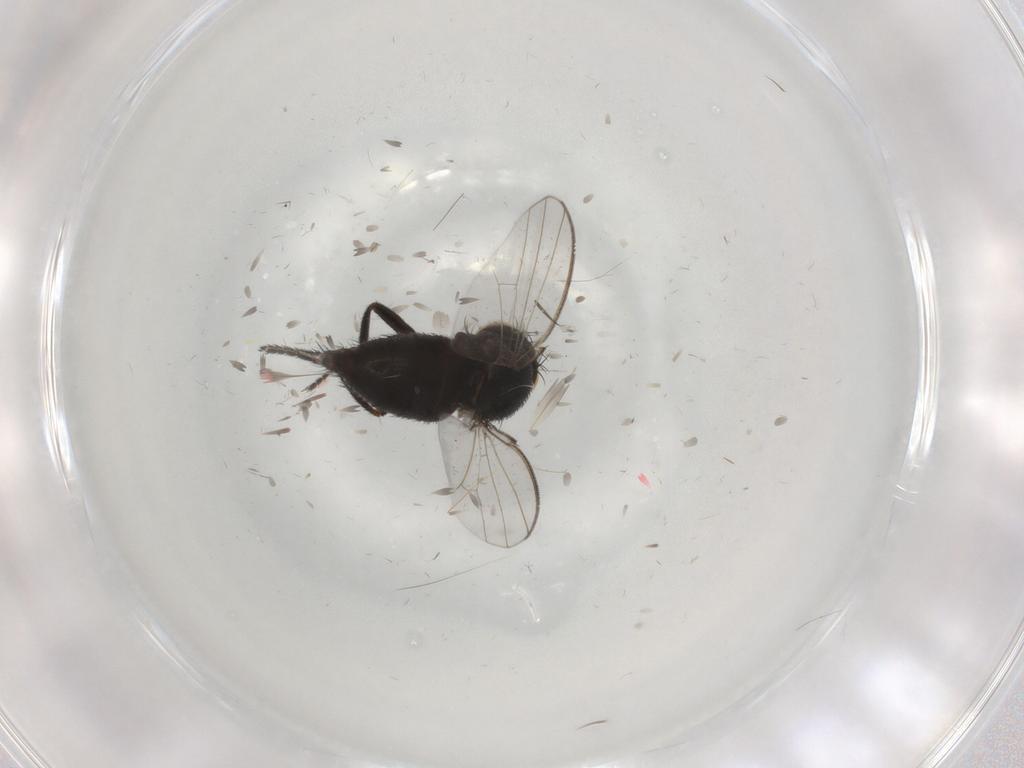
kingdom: Animalia
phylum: Arthropoda
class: Insecta
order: Diptera
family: Milichiidae
